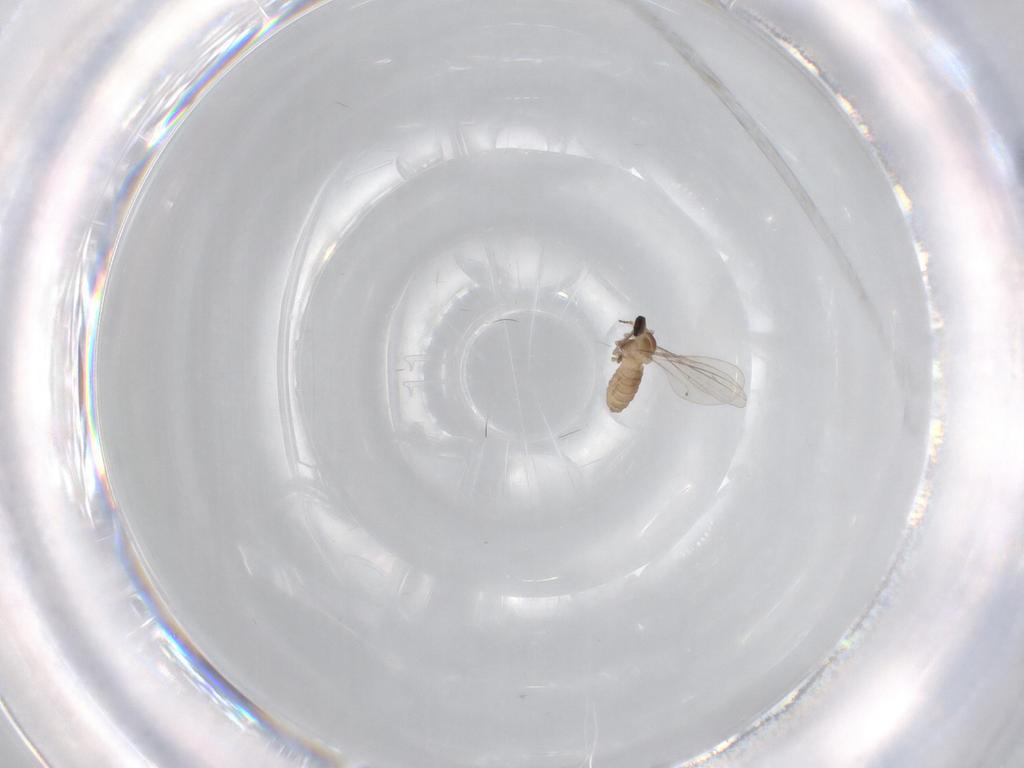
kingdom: Animalia
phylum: Arthropoda
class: Insecta
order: Diptera
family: Cecidomyiidae
